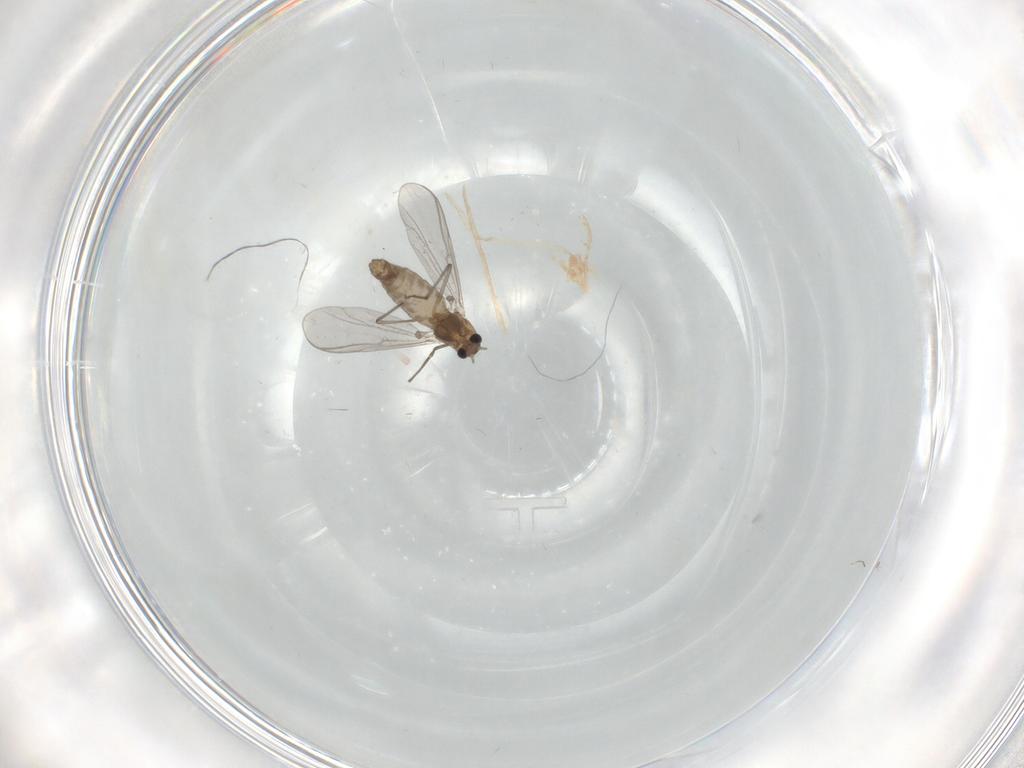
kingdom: Animalia
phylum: Arthropoda
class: Insecta
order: Diptera
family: Chironomidae
